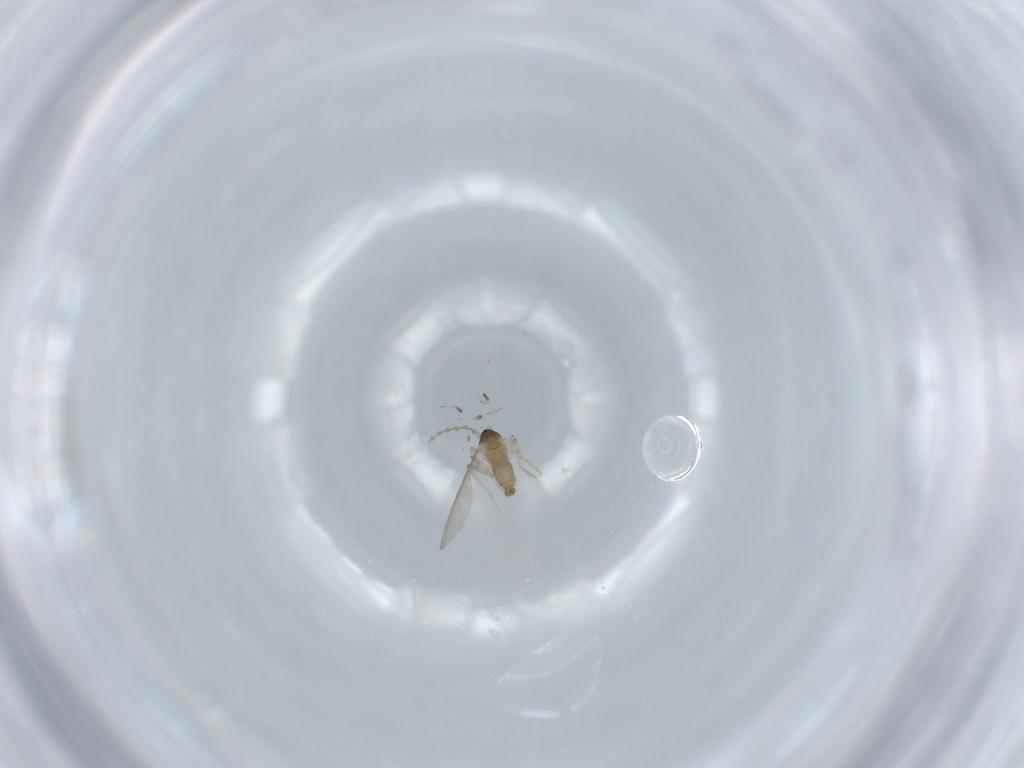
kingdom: Animalia
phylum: Arthropoda
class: Insecta
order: Diptera
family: Cecidomyiidae
